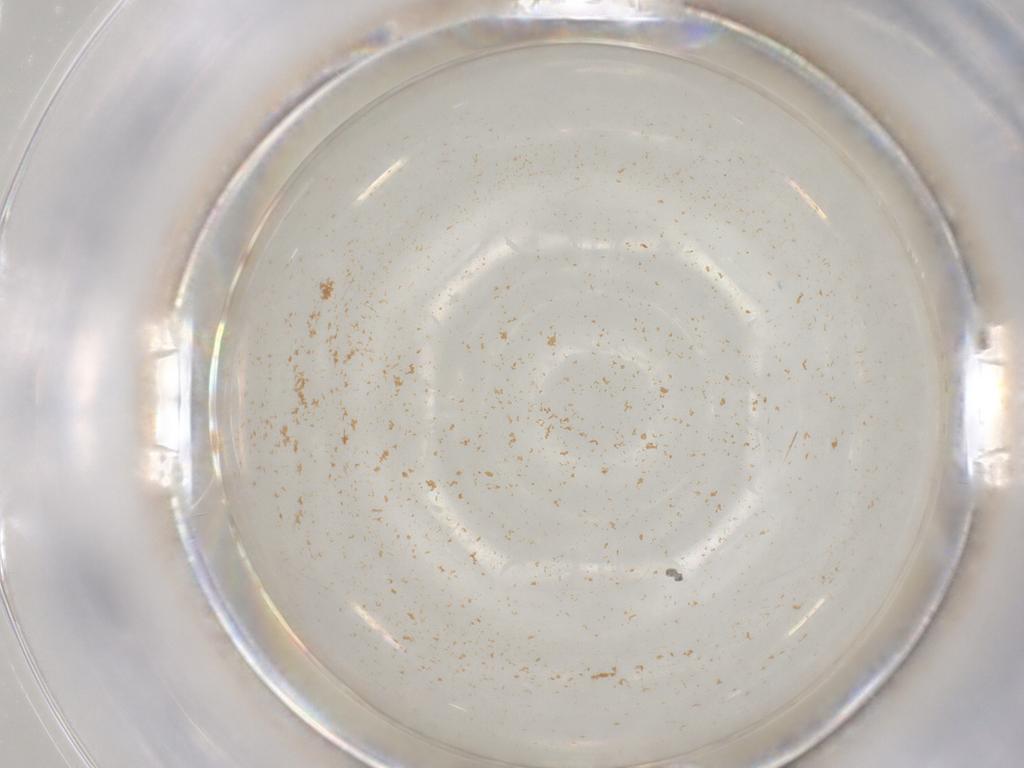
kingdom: Animalia
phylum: Arthropoda
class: Insecta
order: Diptera
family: Chironomidae
